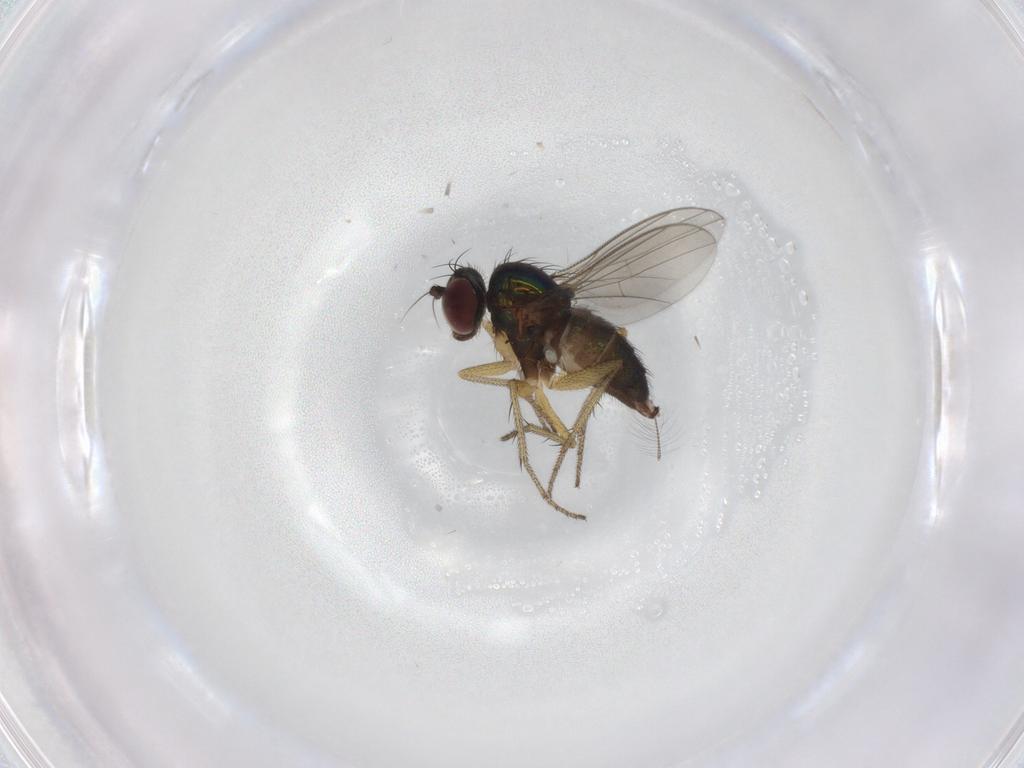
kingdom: Animalia
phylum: Arthropoda
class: Insecta
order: Diptera
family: Dolichopodidae
